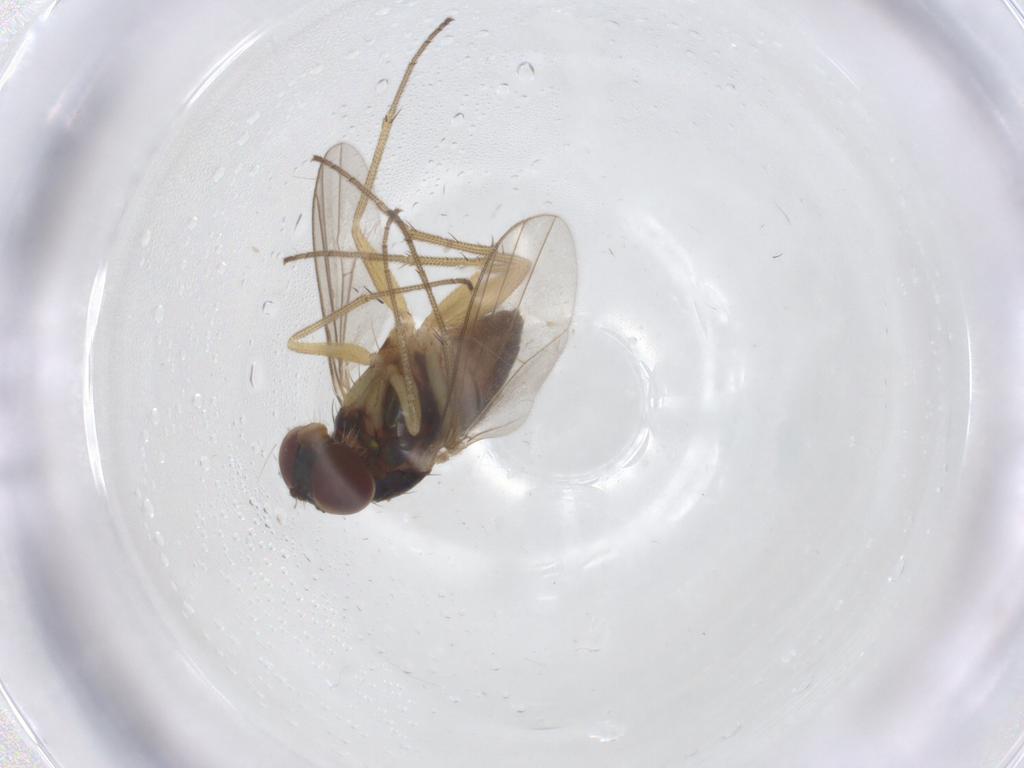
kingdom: Animalia
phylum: Arthropoda
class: Insecta
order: Diptera
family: Dolichopodidae
